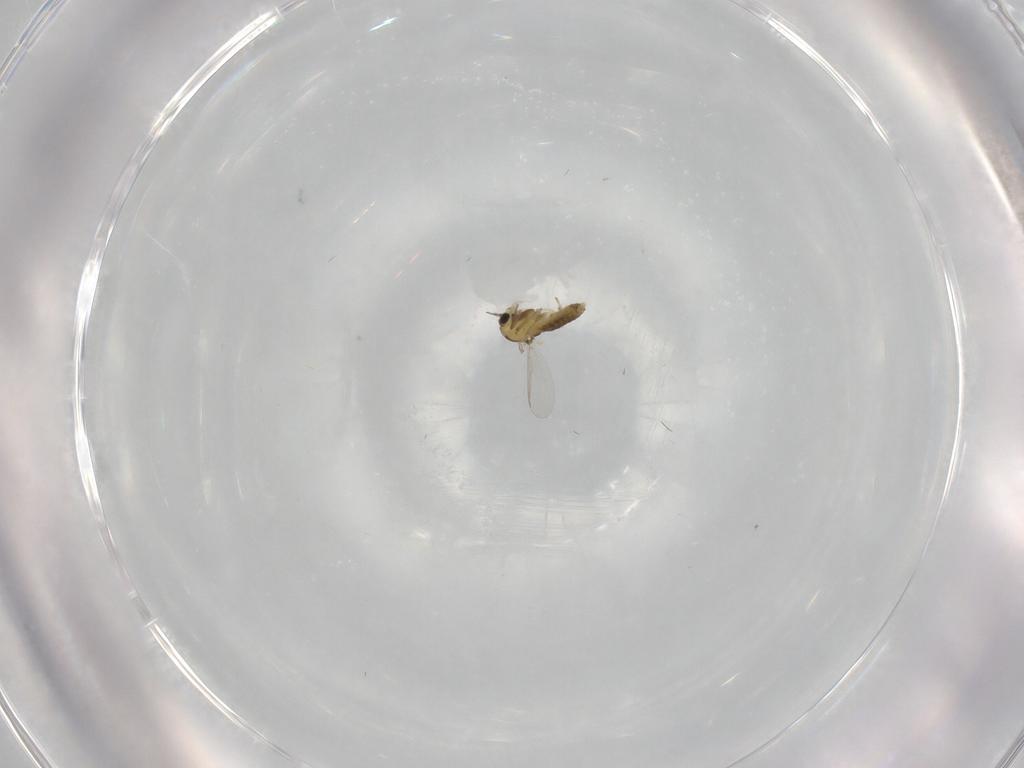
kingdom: Animalia
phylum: Arthropoda
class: Insecta
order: Diptera
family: Chironomidae
